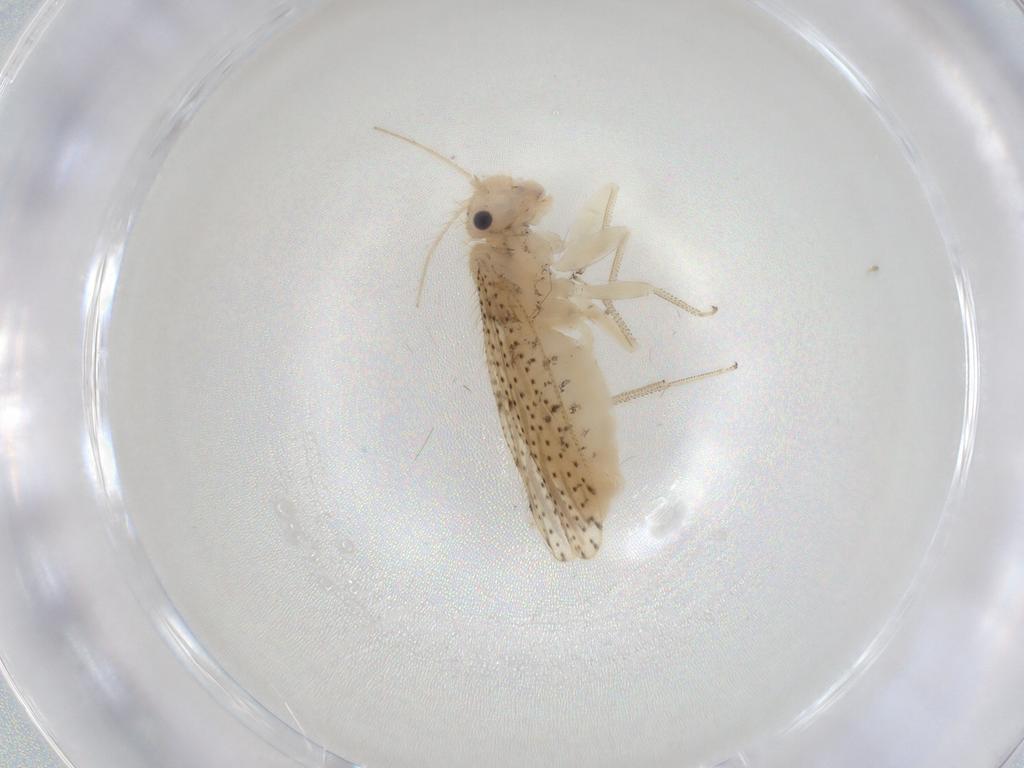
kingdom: Animalia
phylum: Arthropoda
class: Insecta
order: Psocodea
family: Myopsocidae
